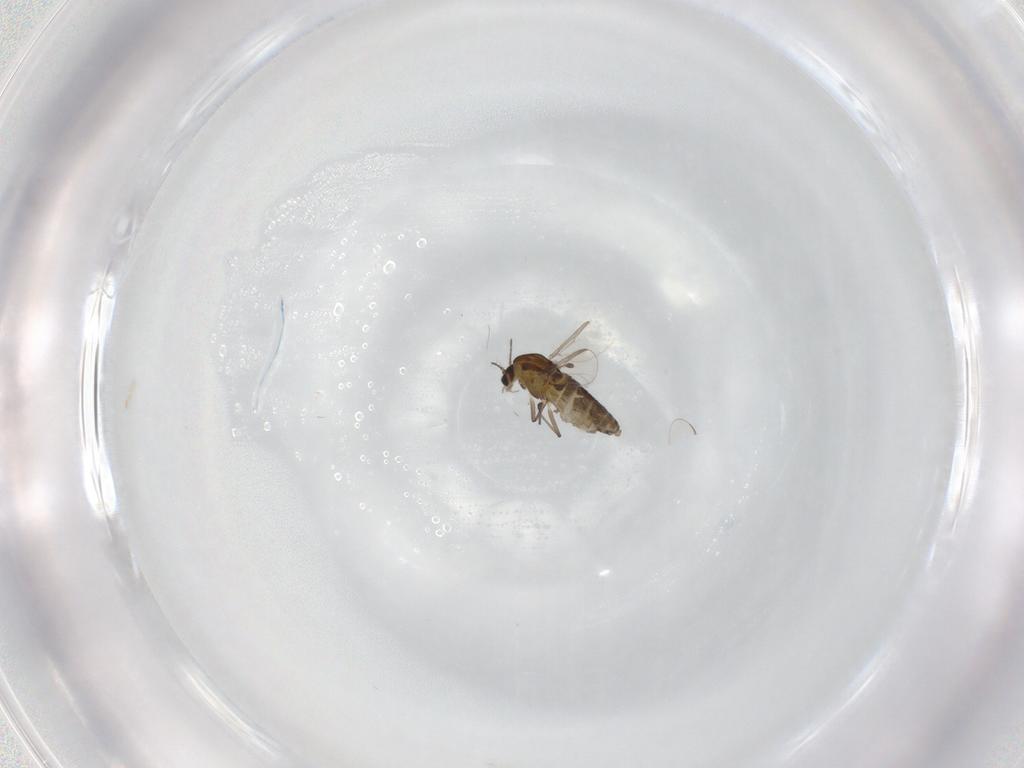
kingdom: Animalia
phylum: Arthropoda
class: Insecta
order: Diptera
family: Chironomidae
